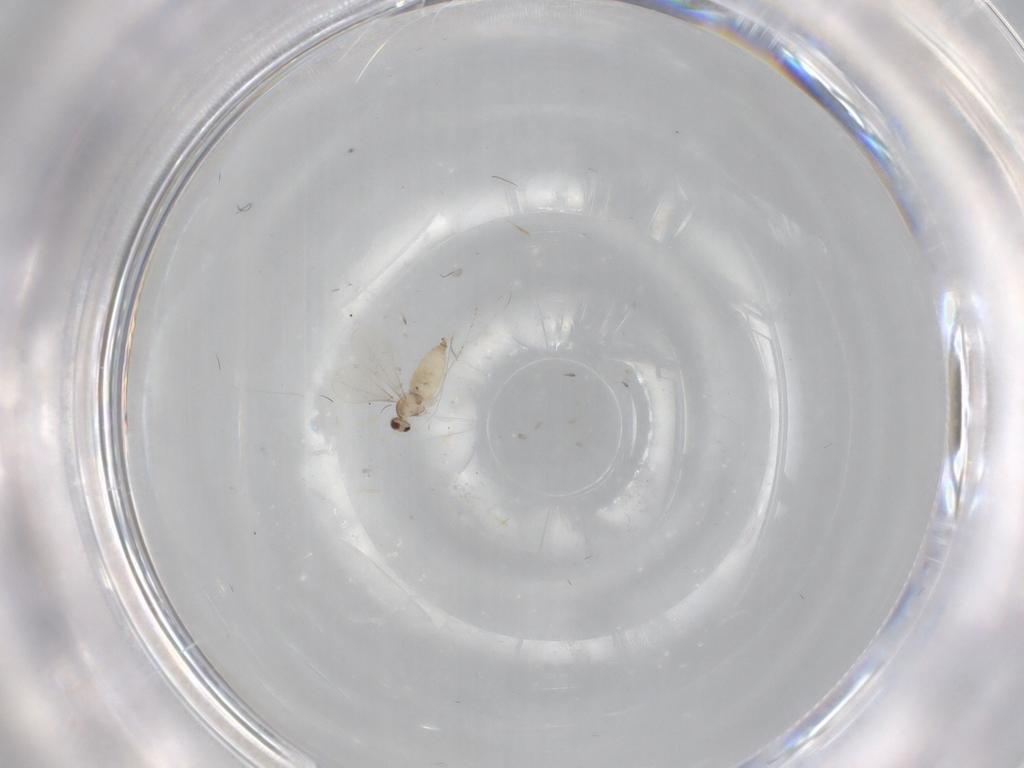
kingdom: Animalia
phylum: Arthropoda
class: Insecta
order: Diptera
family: Cecidomyiidae
